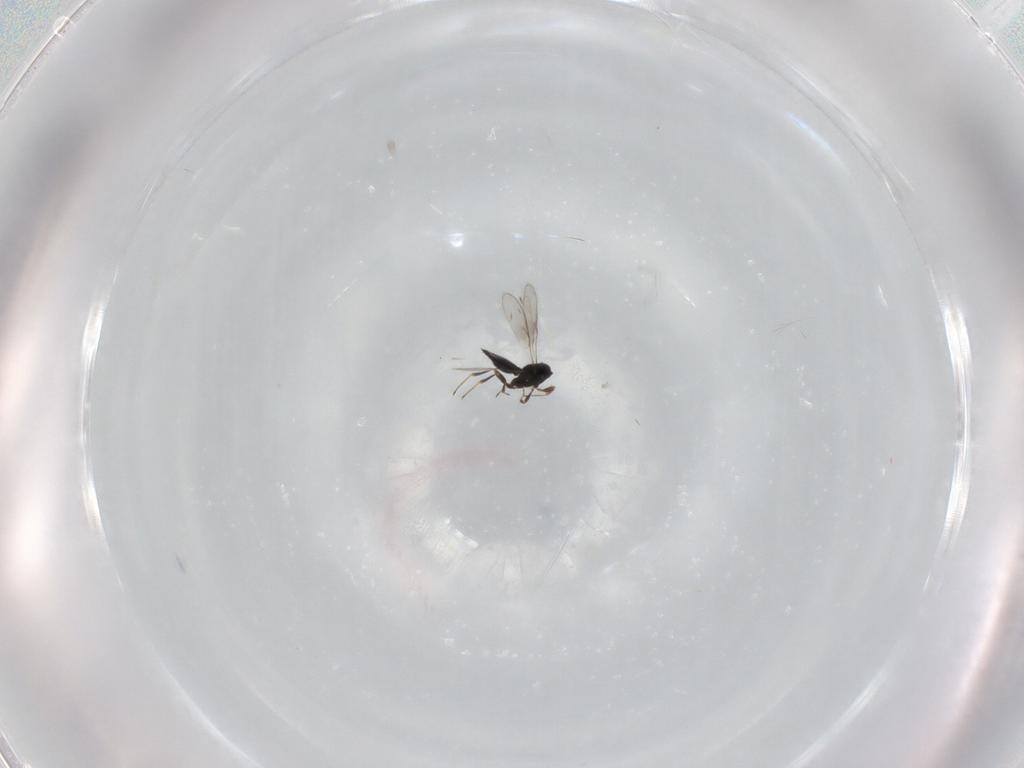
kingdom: Animalia
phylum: Arthropoda
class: Insecta
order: Hymenoptera
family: Scelionidae
